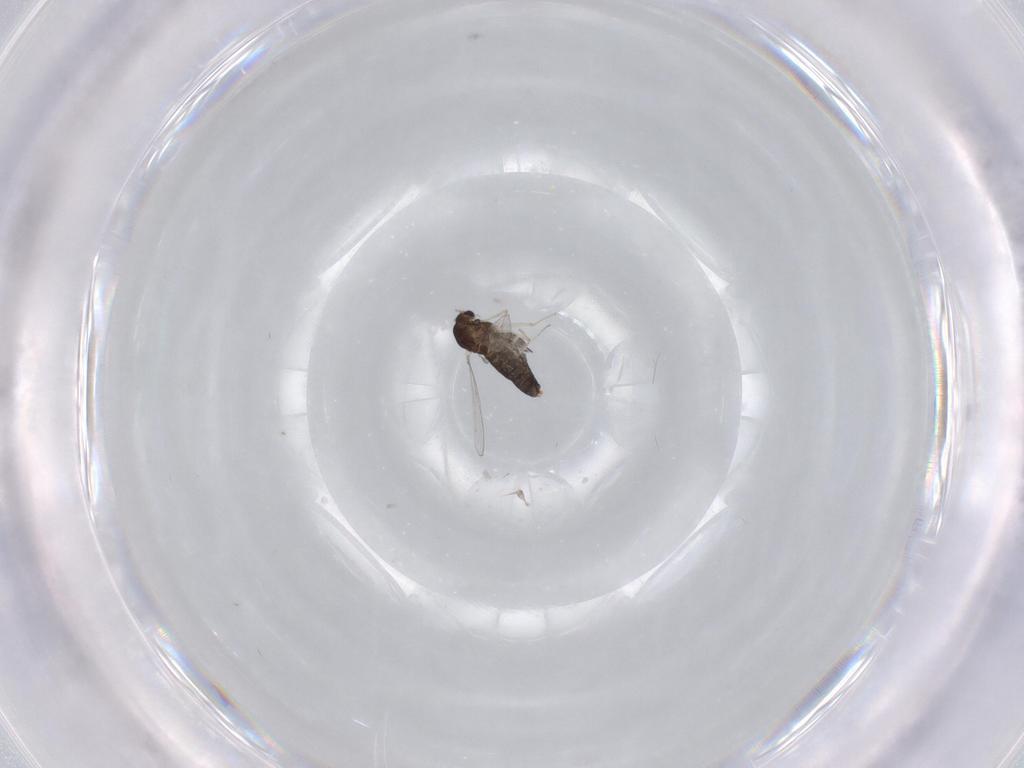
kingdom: Animalia
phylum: Arthropoda
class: Insecta
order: Diptera
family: Chironomidae
